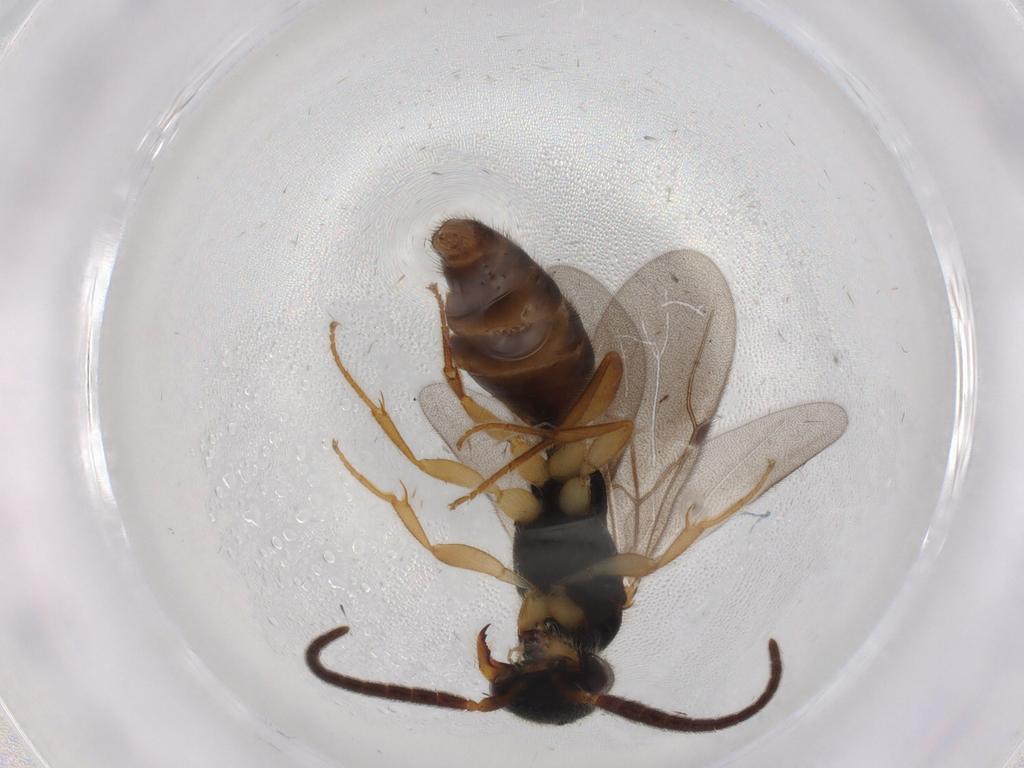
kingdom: Animalia
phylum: Arthropoda
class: Insecta
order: Hymenoptera
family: Bethylidae
